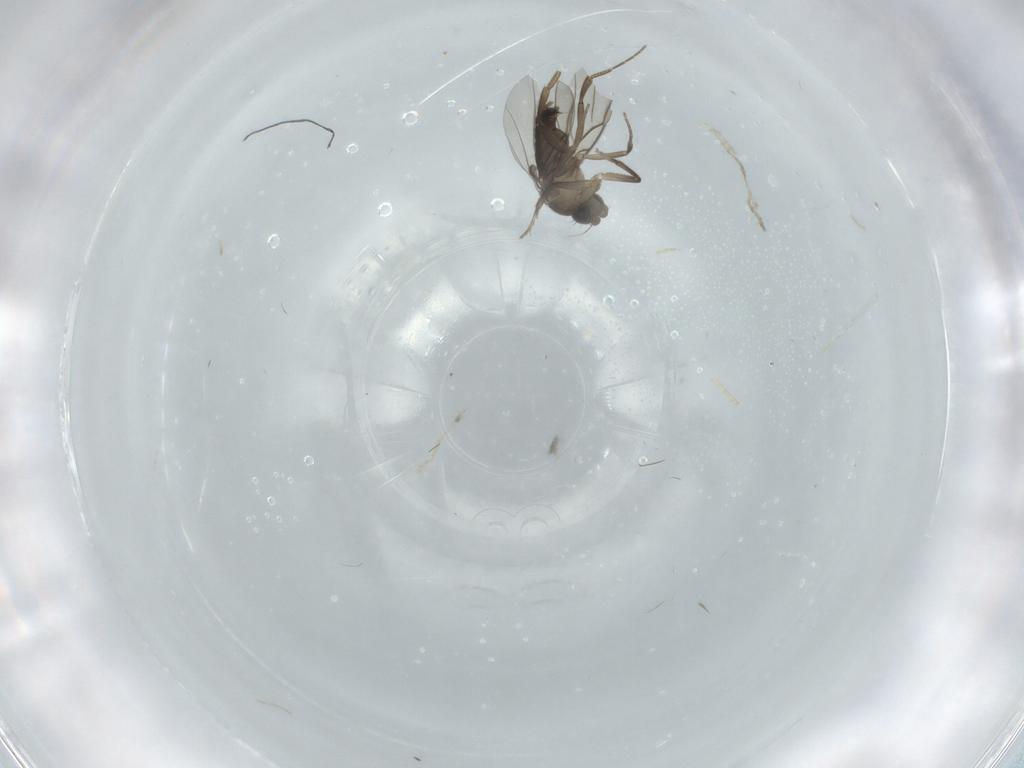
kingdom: Animalia
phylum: Arthropoda
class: Insecta
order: Diptera
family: Phoridae
